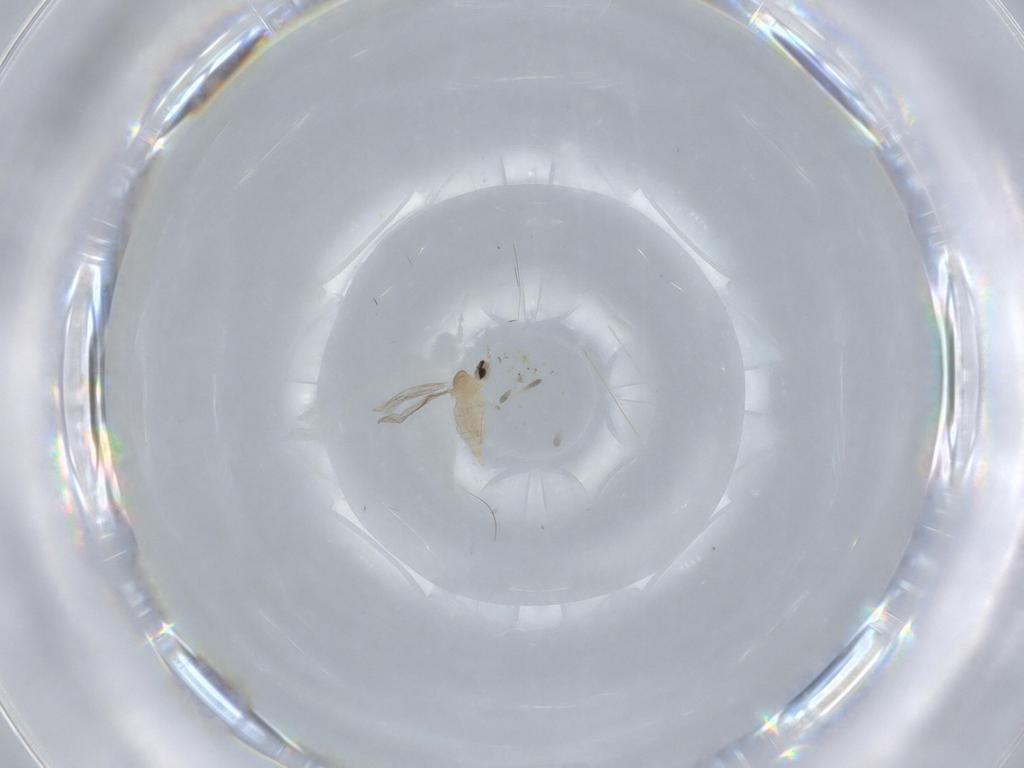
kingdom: Animalia
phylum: Arthropoda
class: Insecta
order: Diptera
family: Cecidomyiidae
